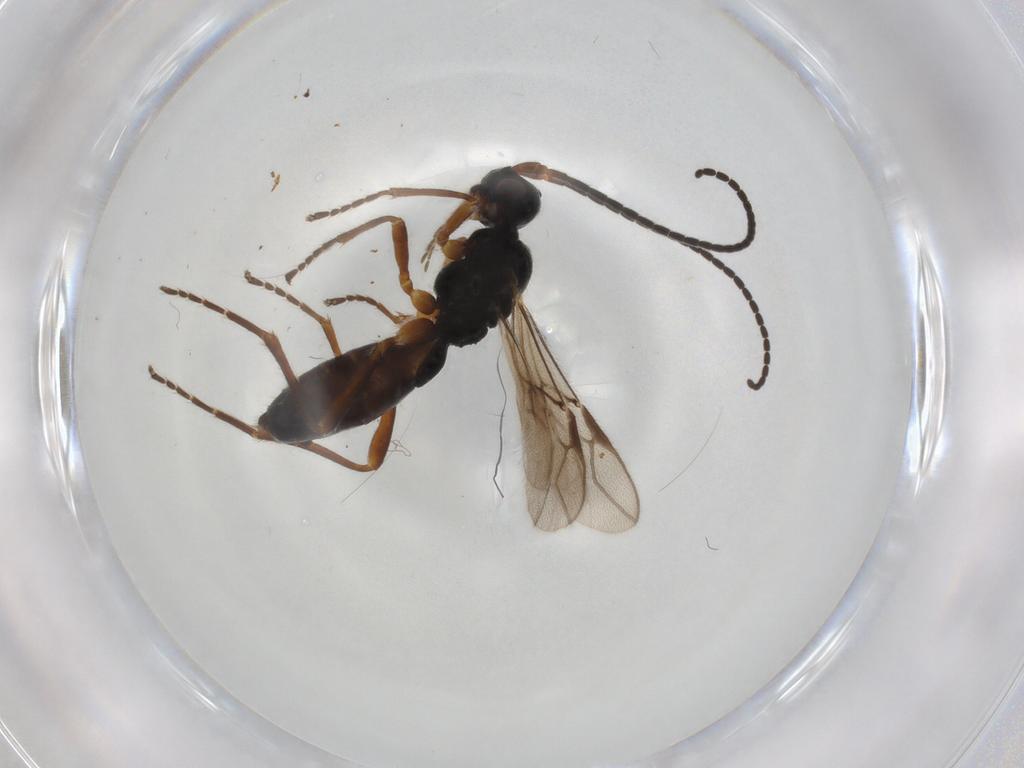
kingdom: Animalia
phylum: Arthropoda
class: Insecta
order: Hymenoptera
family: Braconidae
